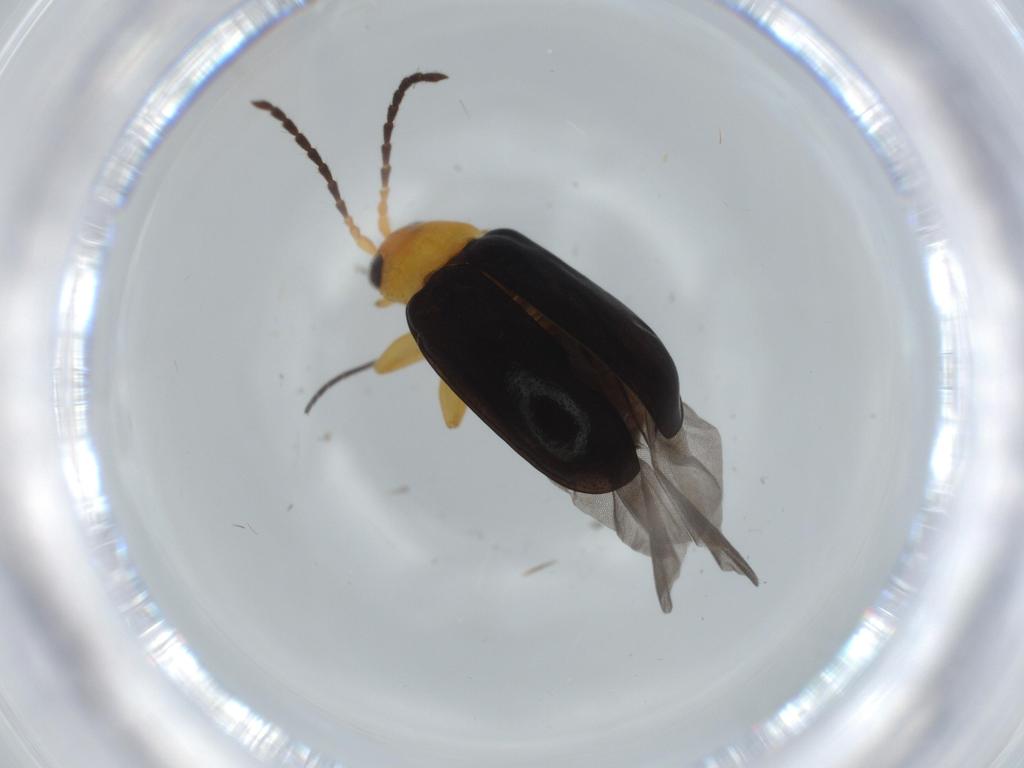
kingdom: Animalia
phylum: Arthropoda
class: Insecta
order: Coleoptera
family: Chrysomelidae
